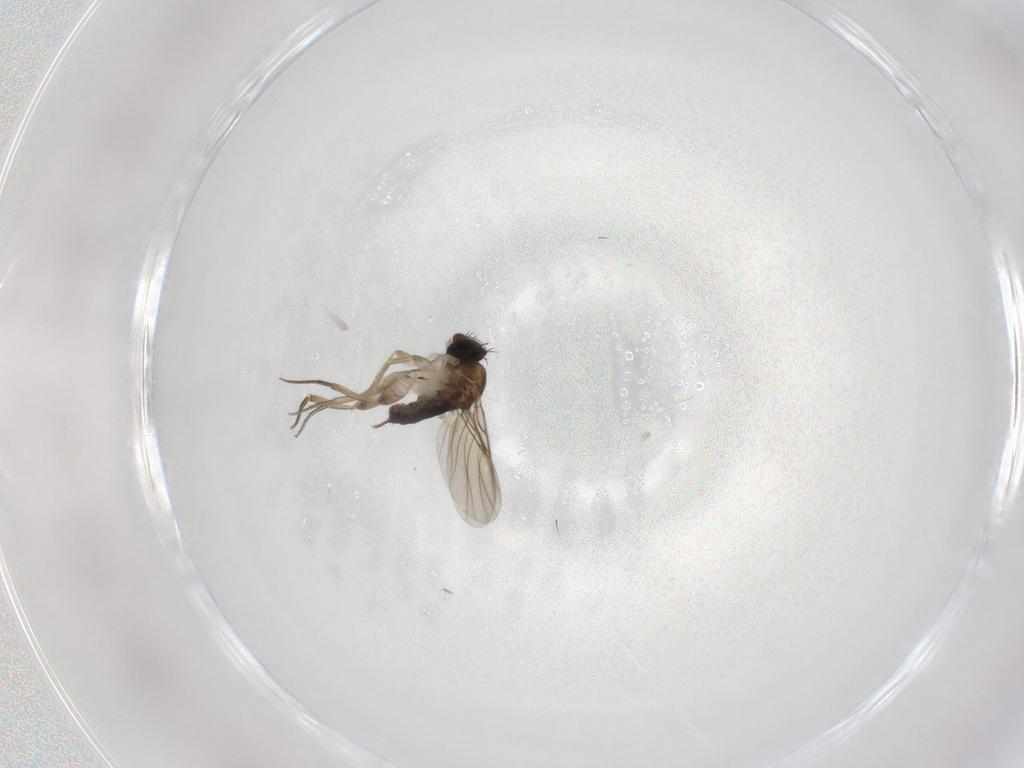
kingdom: Animalia
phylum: Arthropoda
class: Insecta
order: Diptera
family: Phoridae
